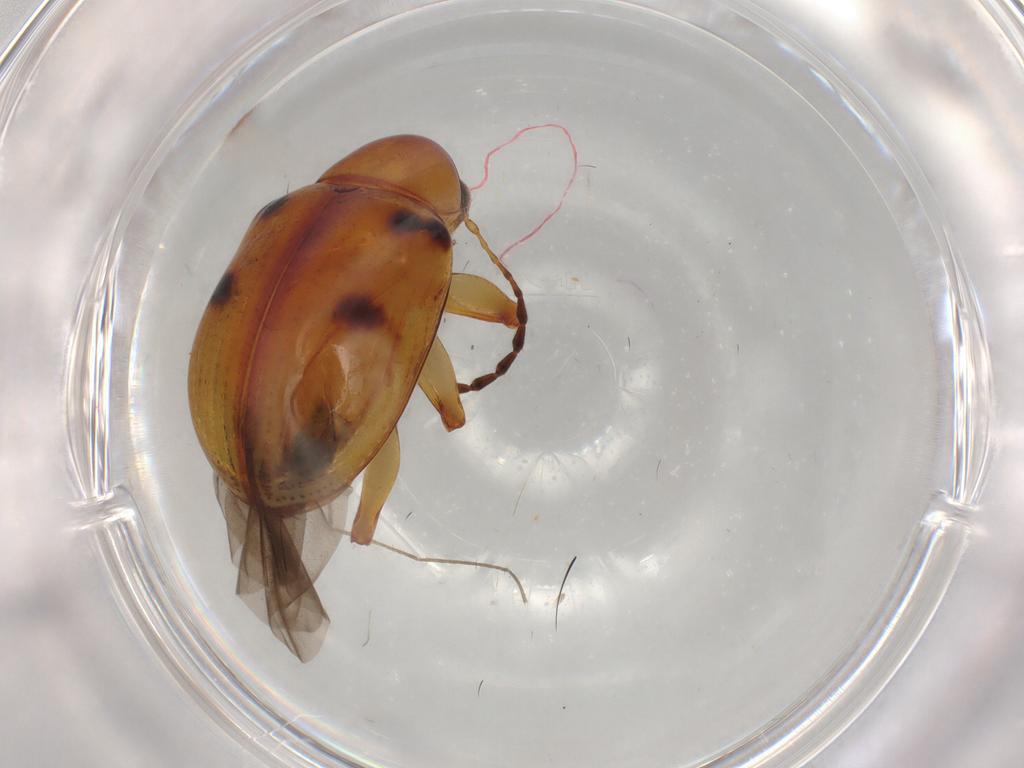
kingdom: Animalia
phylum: Arthropoda
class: Insecta
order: Coleoptera
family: Chrysomelidae
